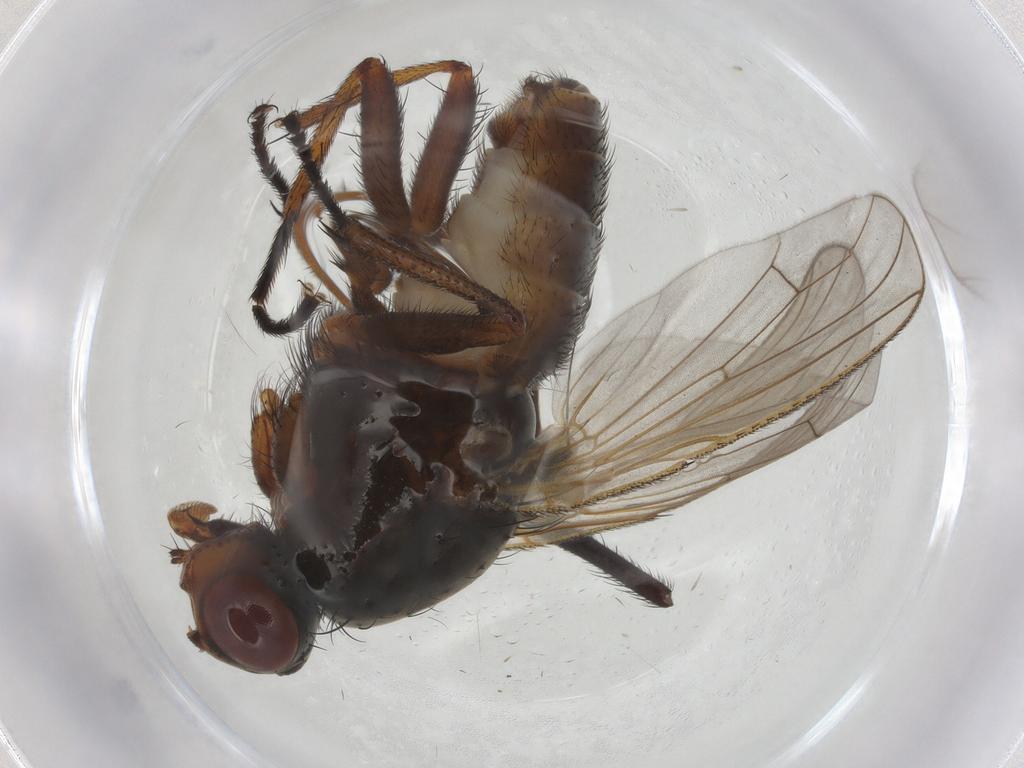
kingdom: Animalia
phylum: Arthropoda
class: Insecta
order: Diptera
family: Anthomyiidae
